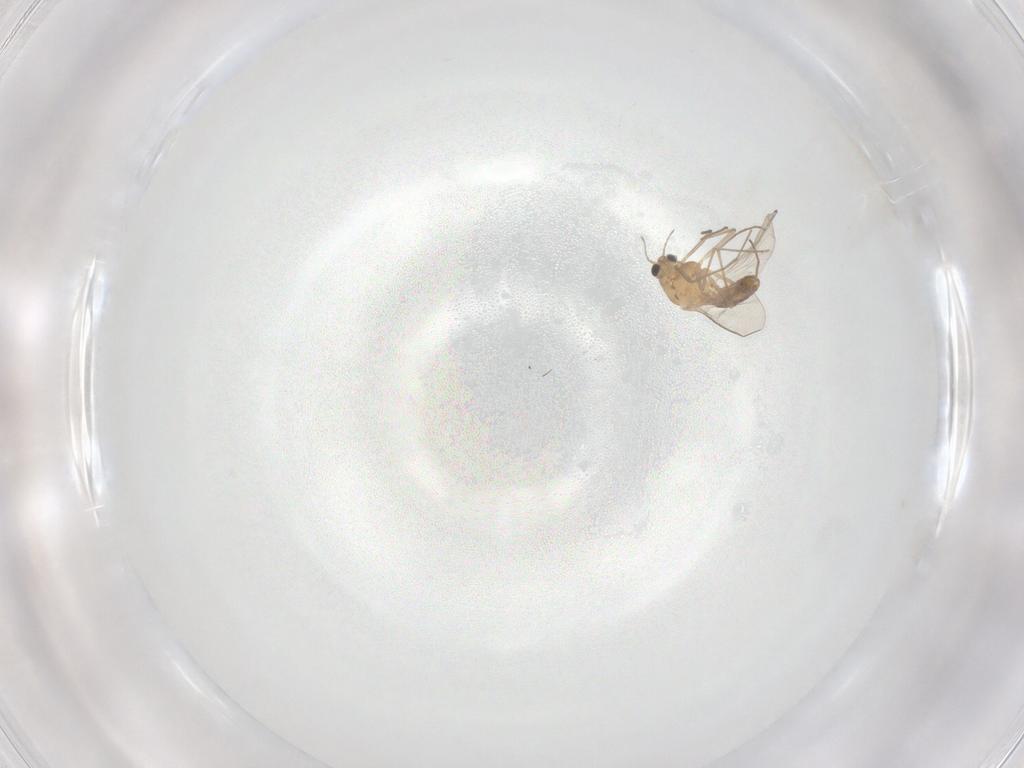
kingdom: Animalia
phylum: Arthropoda
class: Insecta
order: Diptera
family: Chironomidae
